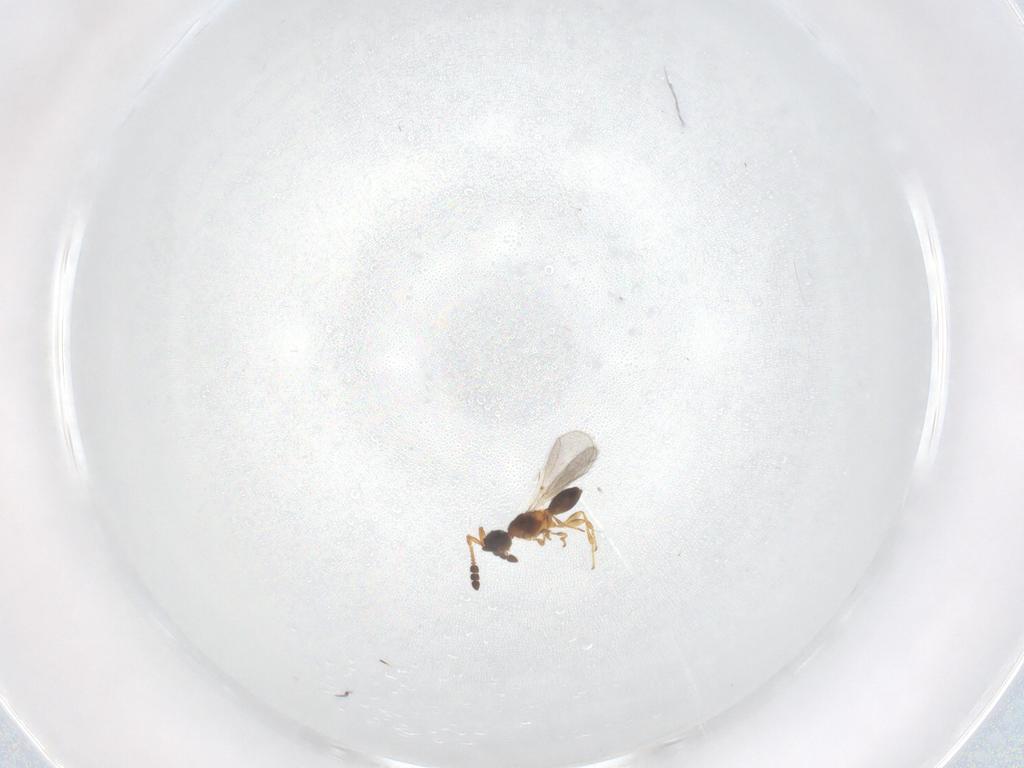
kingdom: Animalia
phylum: Arthropoda
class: Insecta
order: Hymenoptera
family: Diapriidae
